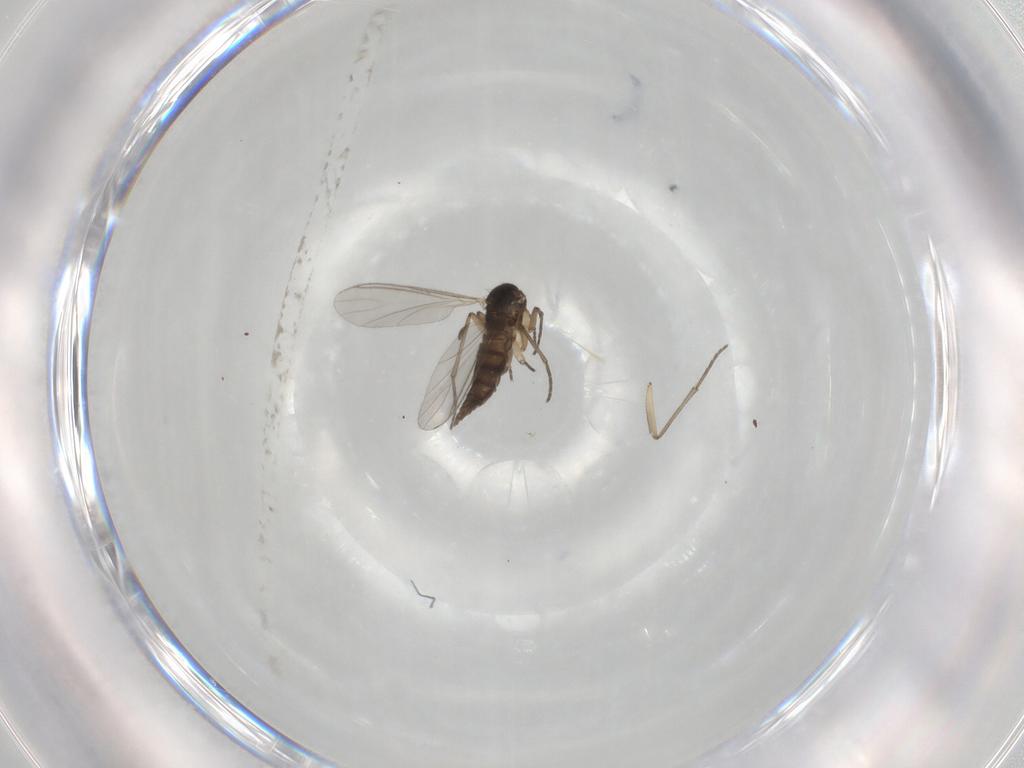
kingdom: Animalia
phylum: Arthropoda
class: Insecta
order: Diptera
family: Sciaridae
